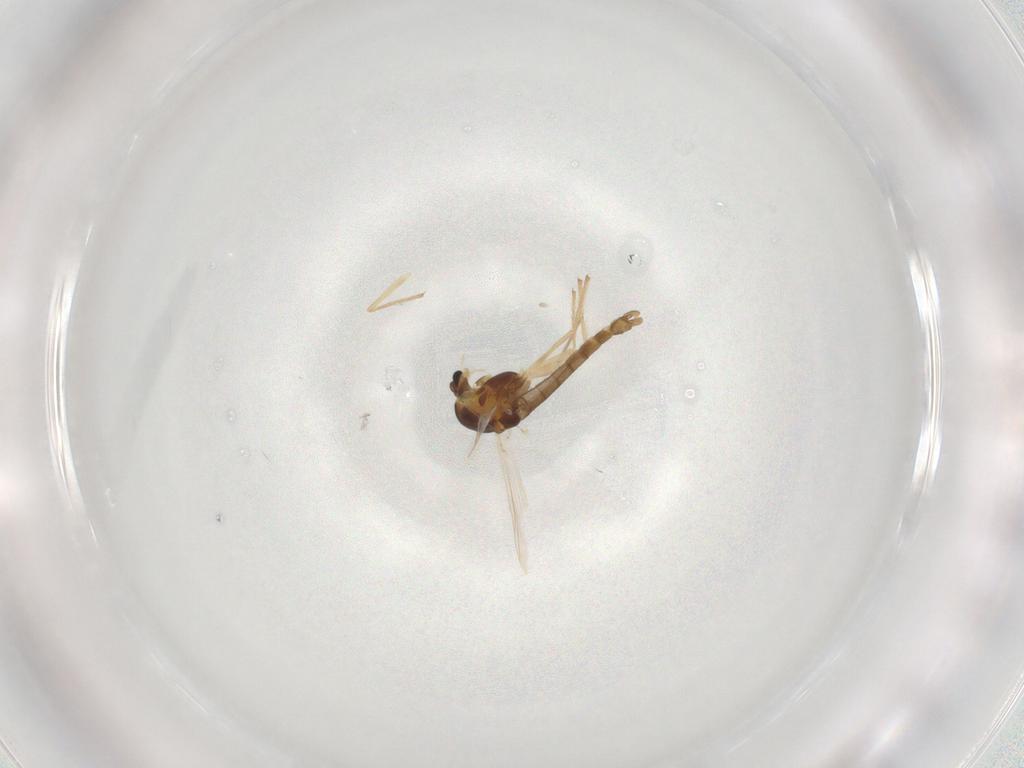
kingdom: Animalia
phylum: Arthropoda
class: Insecta
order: Diptera
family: Chironomidae
